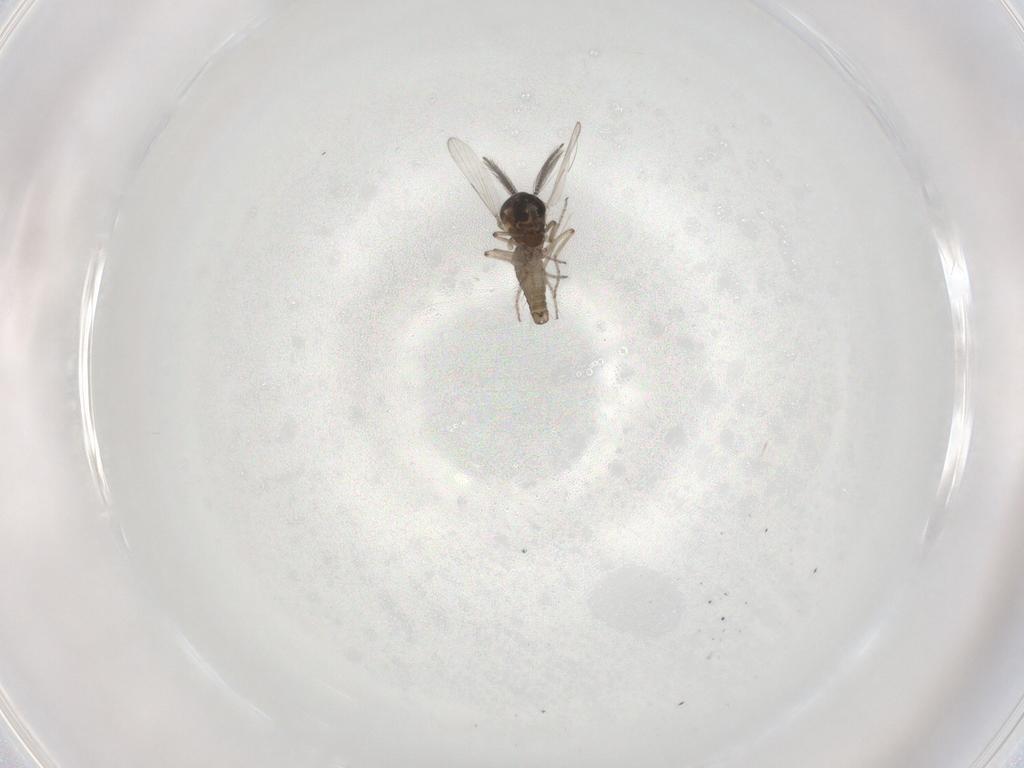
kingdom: Animalia
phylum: Arthropoda
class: Insecta
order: Diptera
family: Ceratopogonidae
